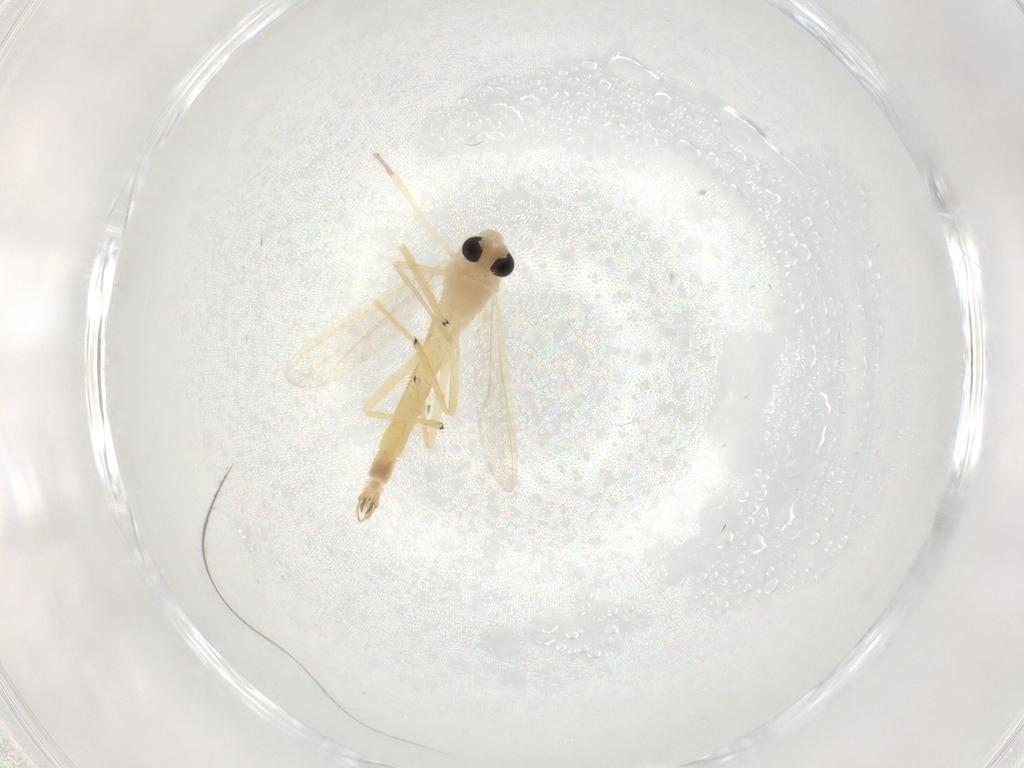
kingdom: Animalia
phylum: Arthropoda
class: Insecta
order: Diptera
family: Chironomidae
